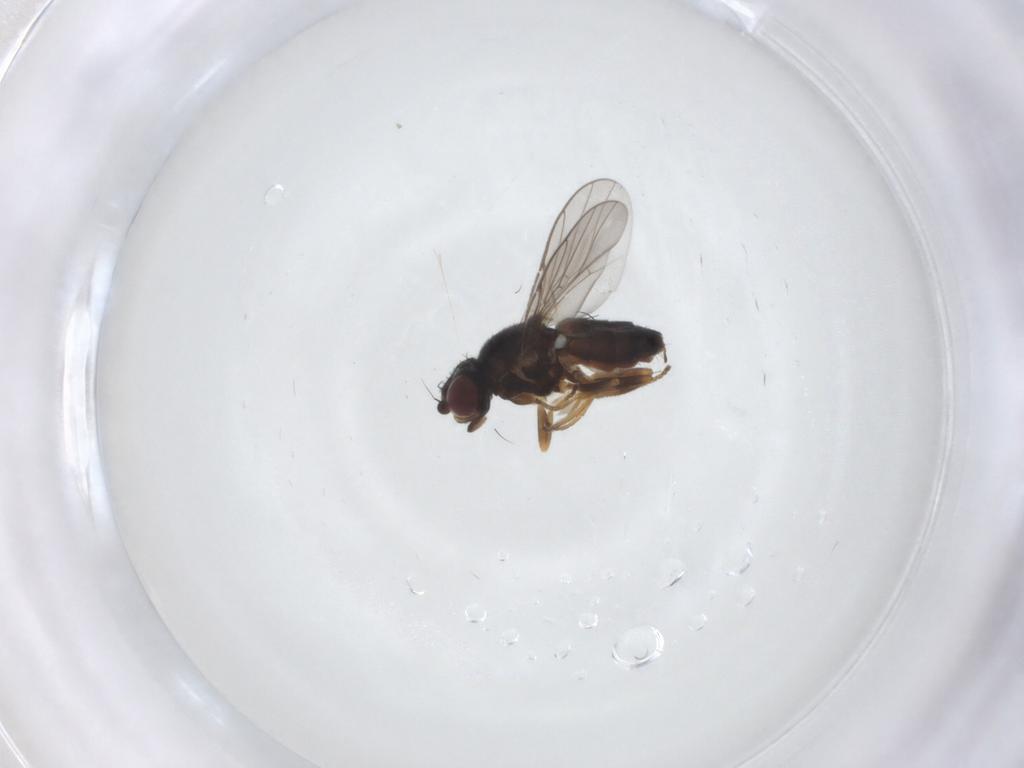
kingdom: Animalia
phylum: Arthropoda
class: Insecta
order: Diptera
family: Chloropidae
